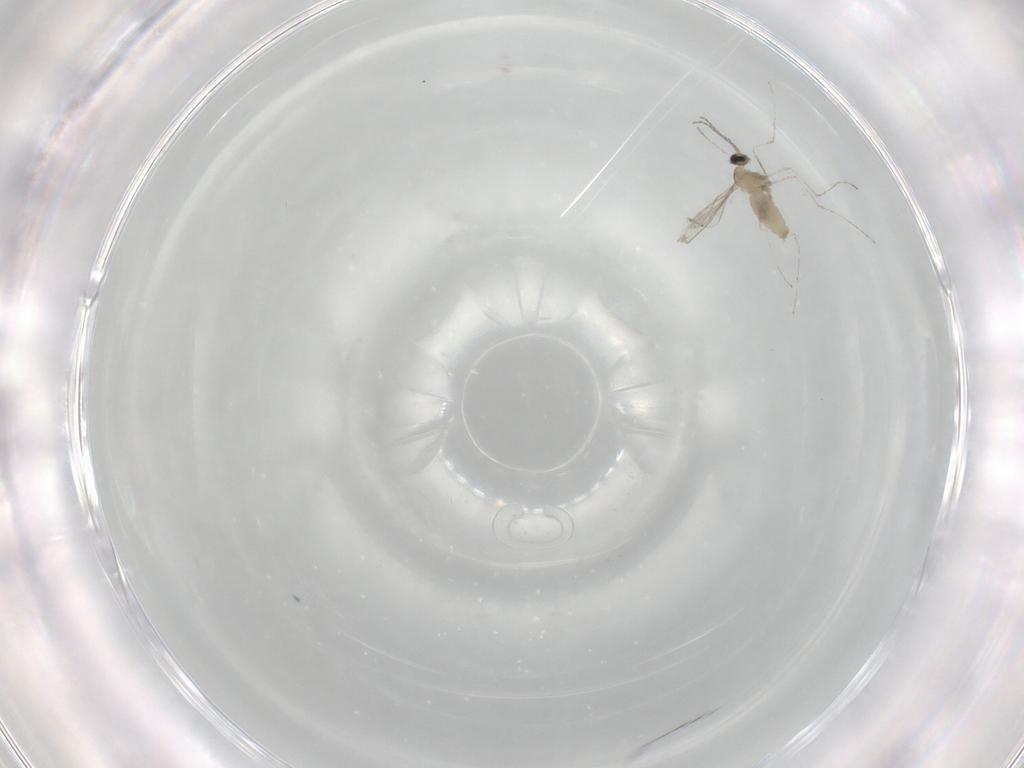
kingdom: Animalia
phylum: Arthropoda
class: Insecta
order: Diptera
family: Cecidomyiidae
